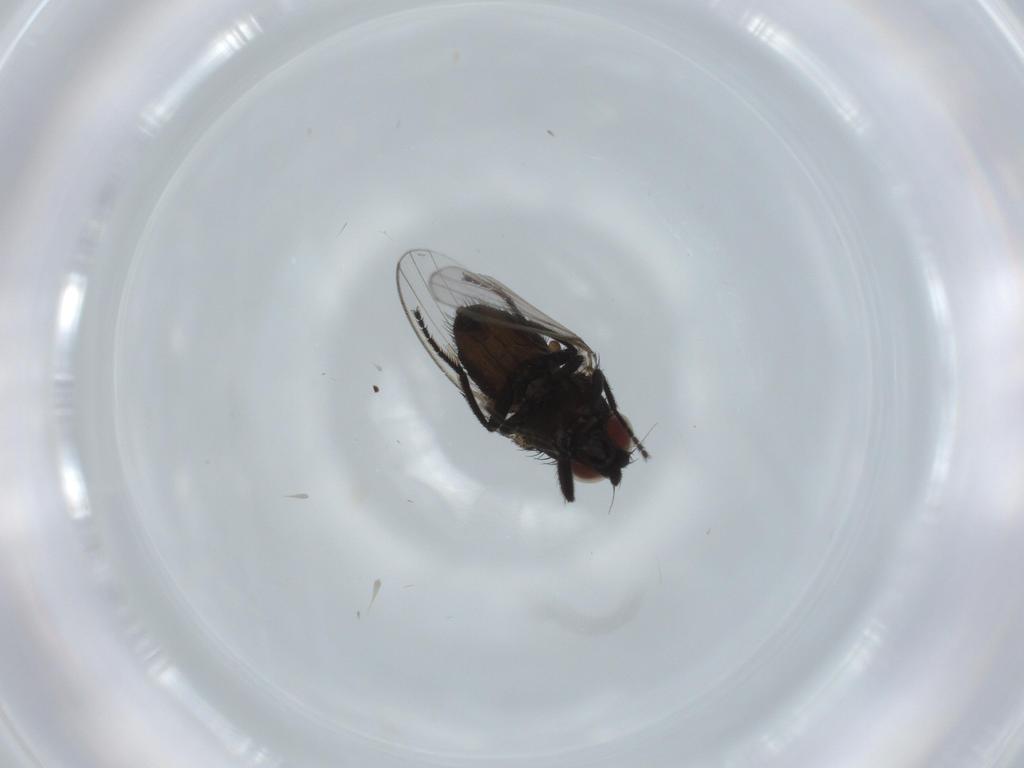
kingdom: Animalia
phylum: Arthropoda
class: Insecta
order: Diptera
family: Milichiidae
